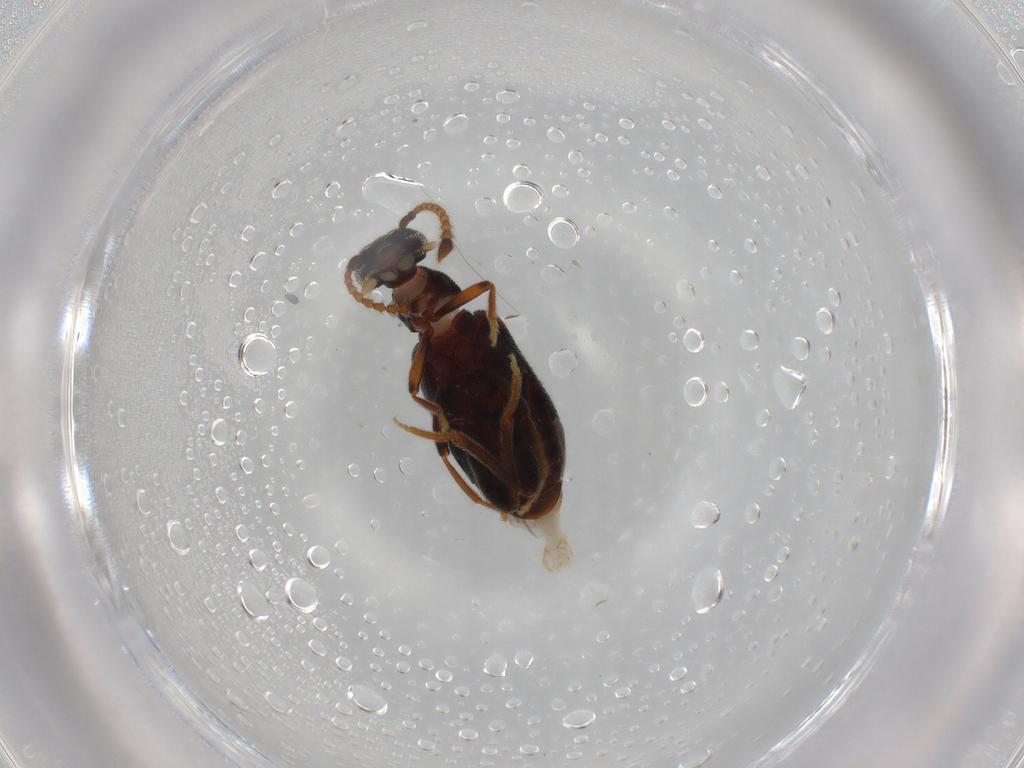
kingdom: Animalia
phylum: Arthropoda
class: Insecta
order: Coleoptera
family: Aderidae
